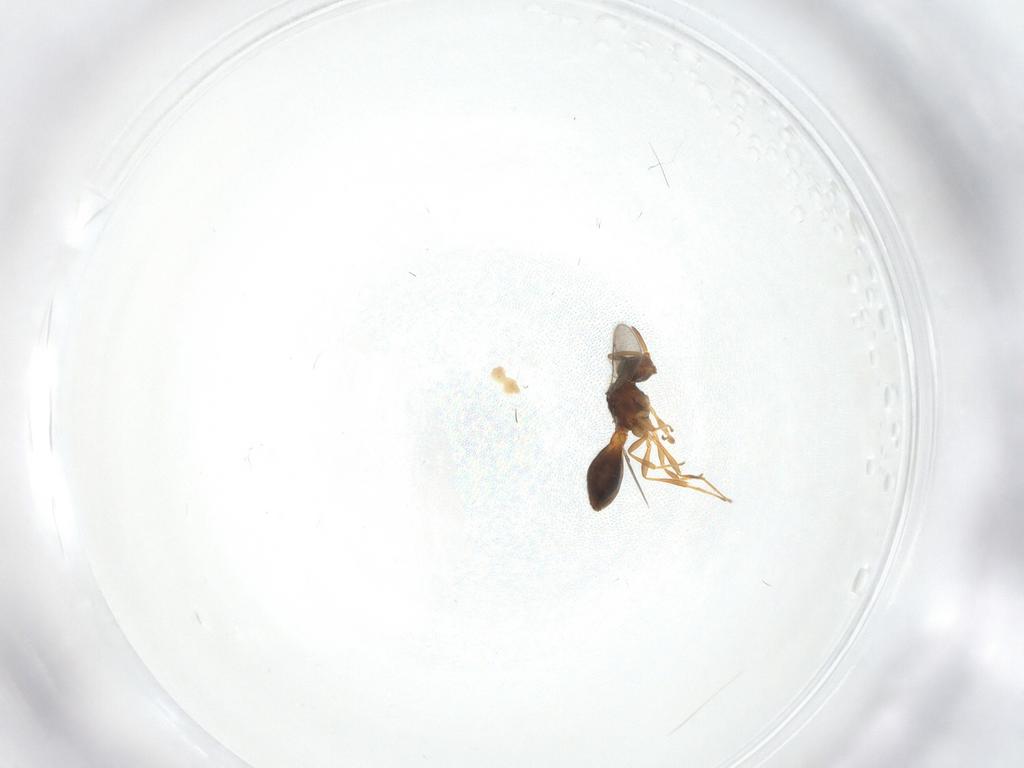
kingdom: Animalia
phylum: Arthropoda
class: Insecta
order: Hymenoptera
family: Scelionidae
